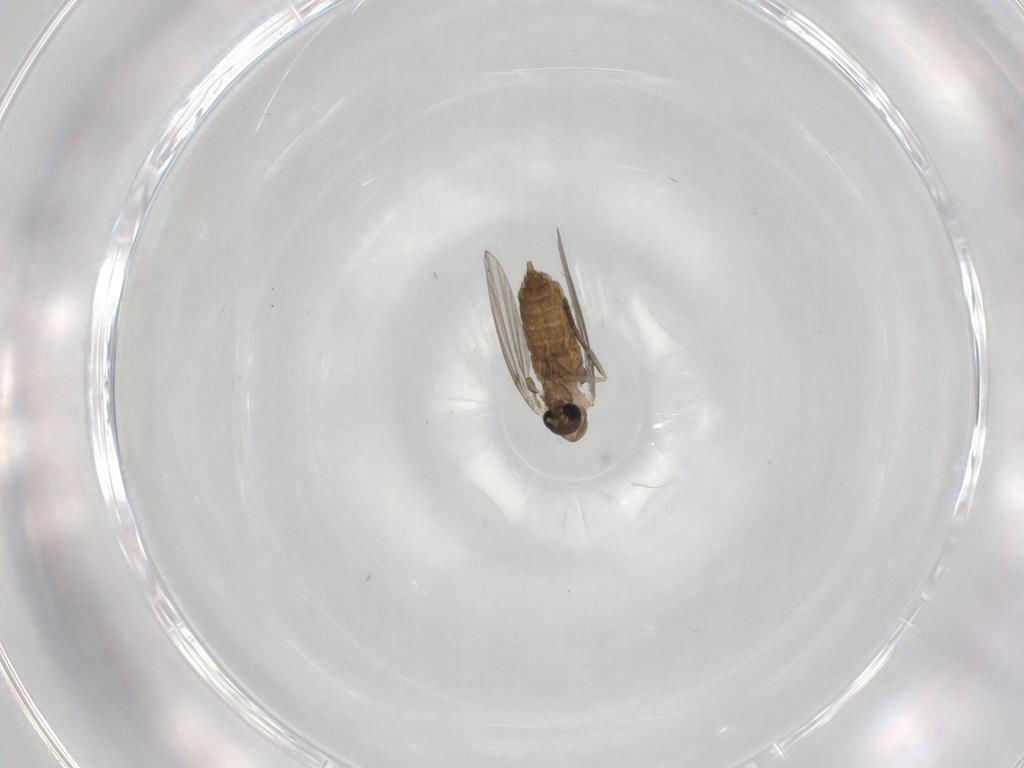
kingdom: Animalia
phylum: Arthropoda
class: Insecta
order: Diptera
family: Psychodidae
